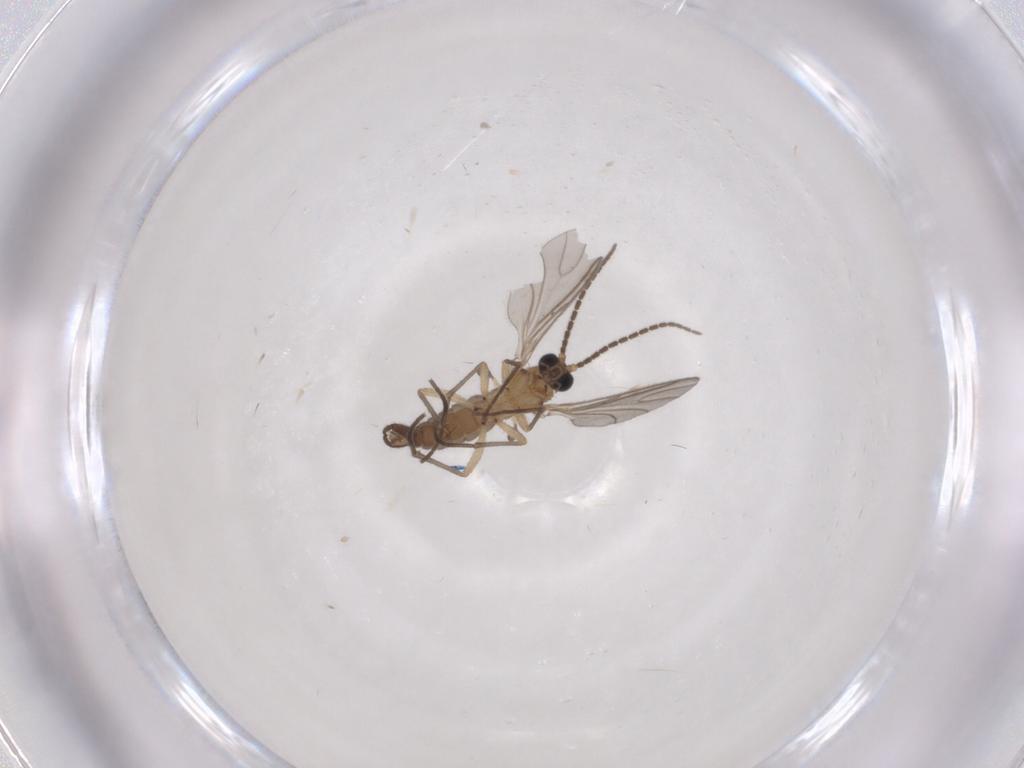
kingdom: Animalia
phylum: Arthropoda
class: Insecta
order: Diptera
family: Sciaridae
